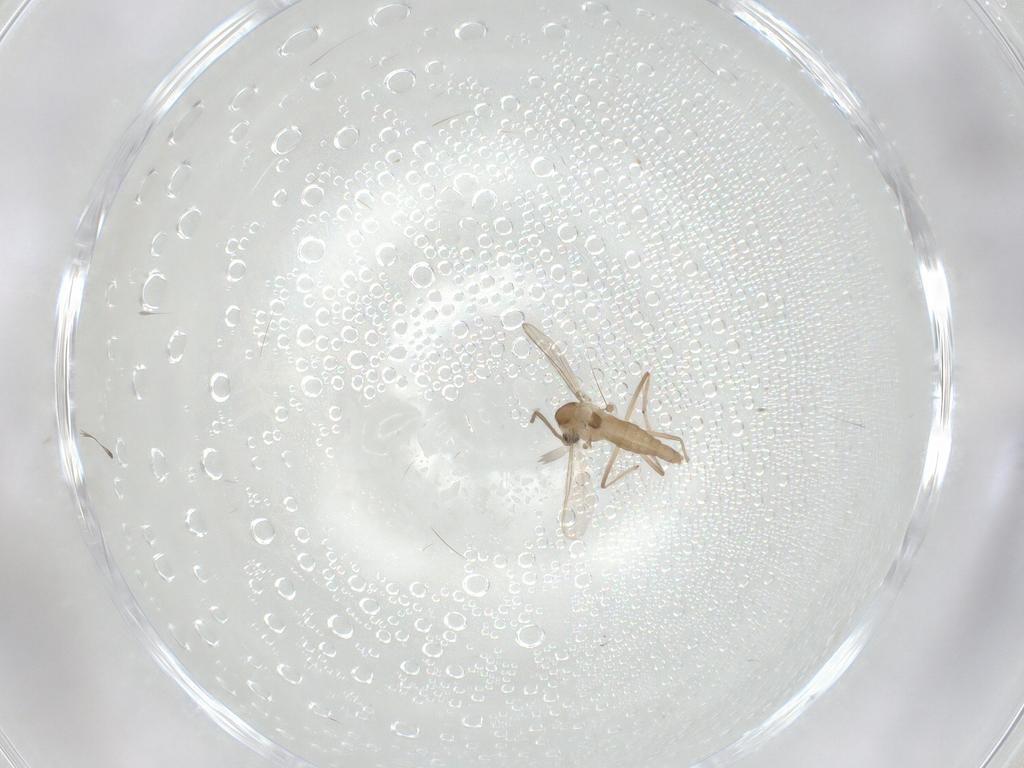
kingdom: Animalia
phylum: Arthropoda
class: Insecta
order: Diptera
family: Chironomidae
